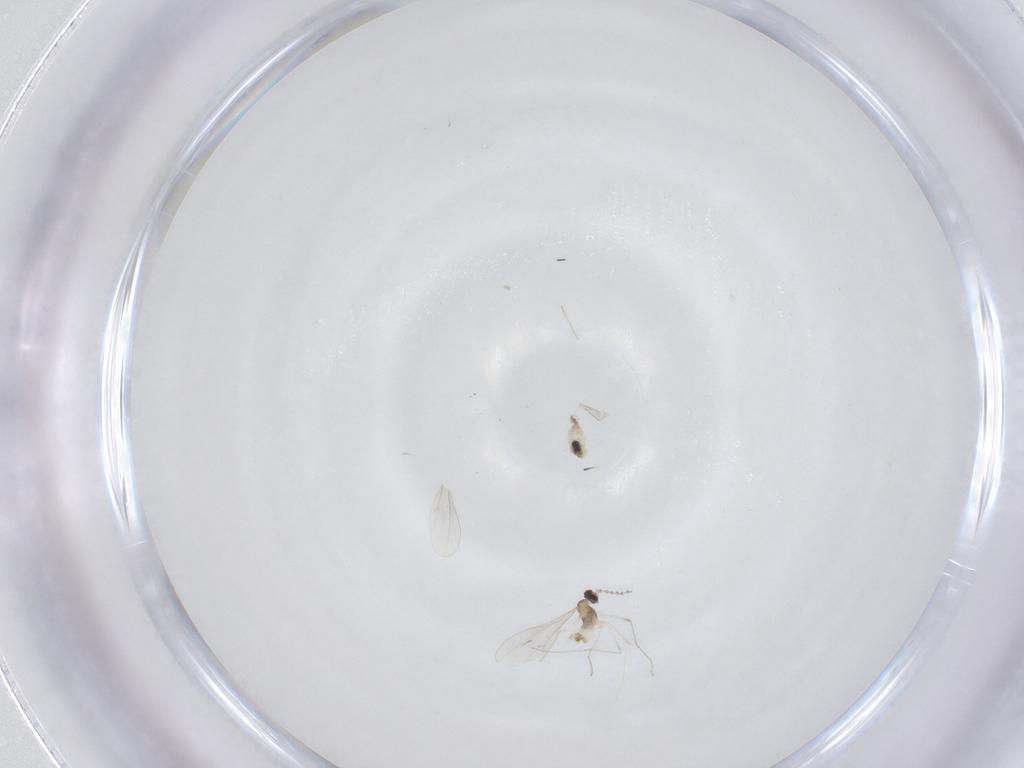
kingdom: Animalia
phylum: Arthropoda
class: Insecta
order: Diptera
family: Cecidomyiidae
